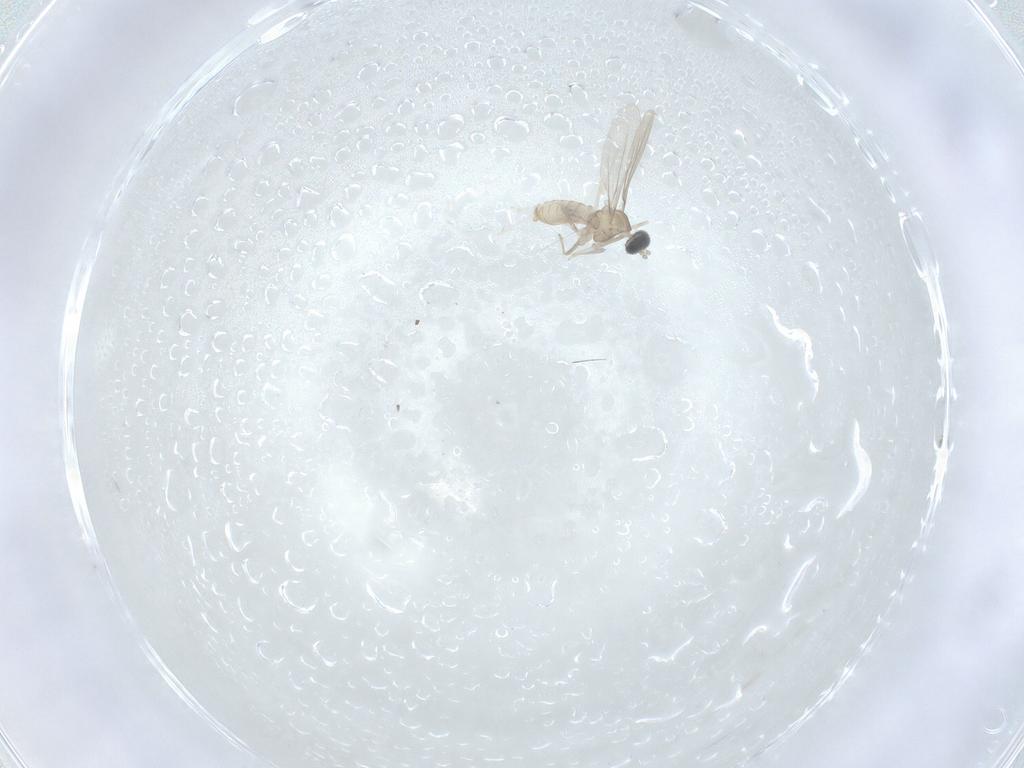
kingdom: Animalia
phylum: Arthropoda
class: Insecta
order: Diptera
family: Cecidomyiidae
